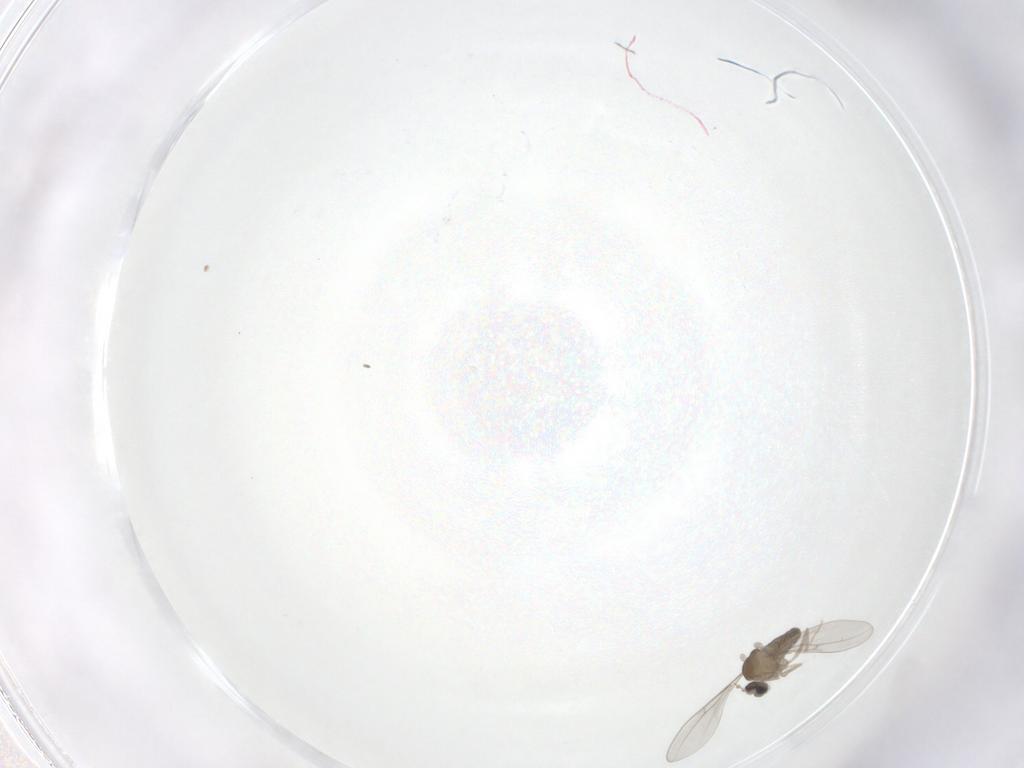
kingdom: Animalia
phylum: Arthropoda
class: Insecta
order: Diptera
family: Cecidomyiidae
